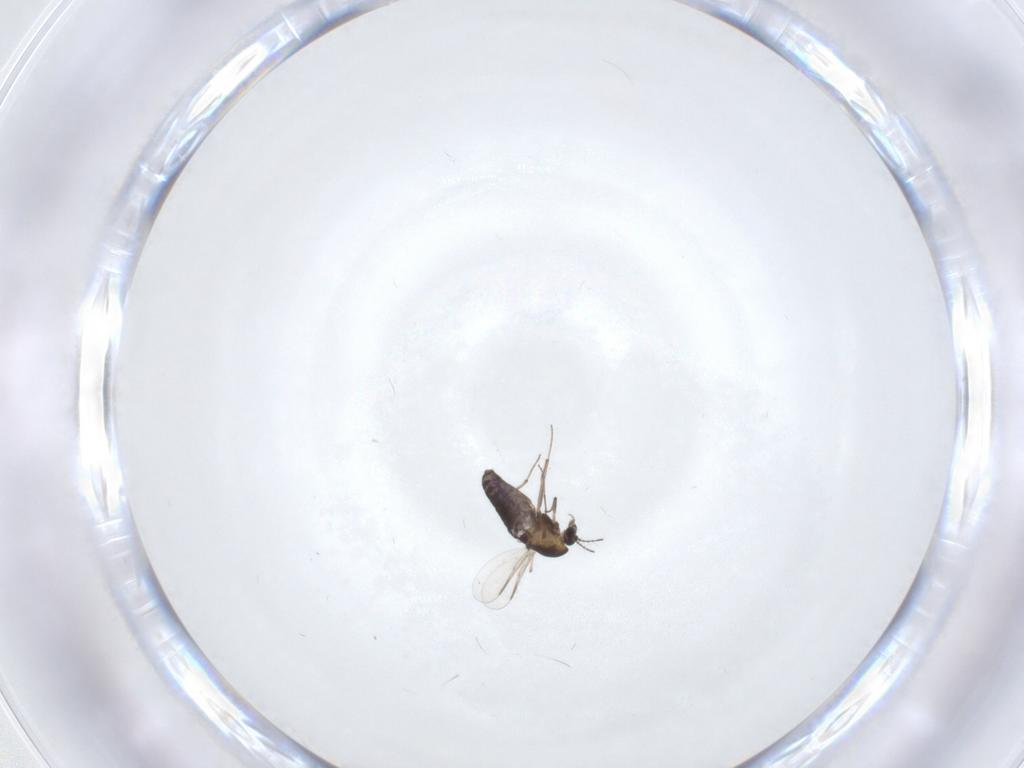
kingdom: Animalia
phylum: Arthropoda
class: Insecta
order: Diptera
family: Chironomidae
